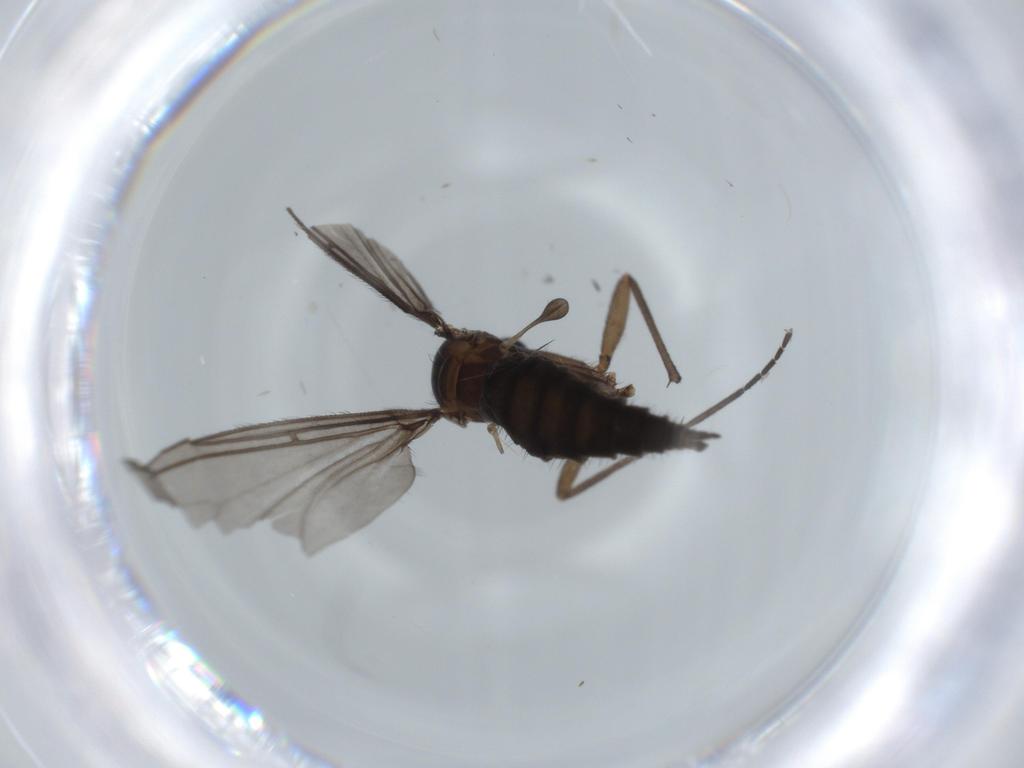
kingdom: Animalia
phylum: Arthropoda
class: Insecta
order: Diptera
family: Sciaridae
